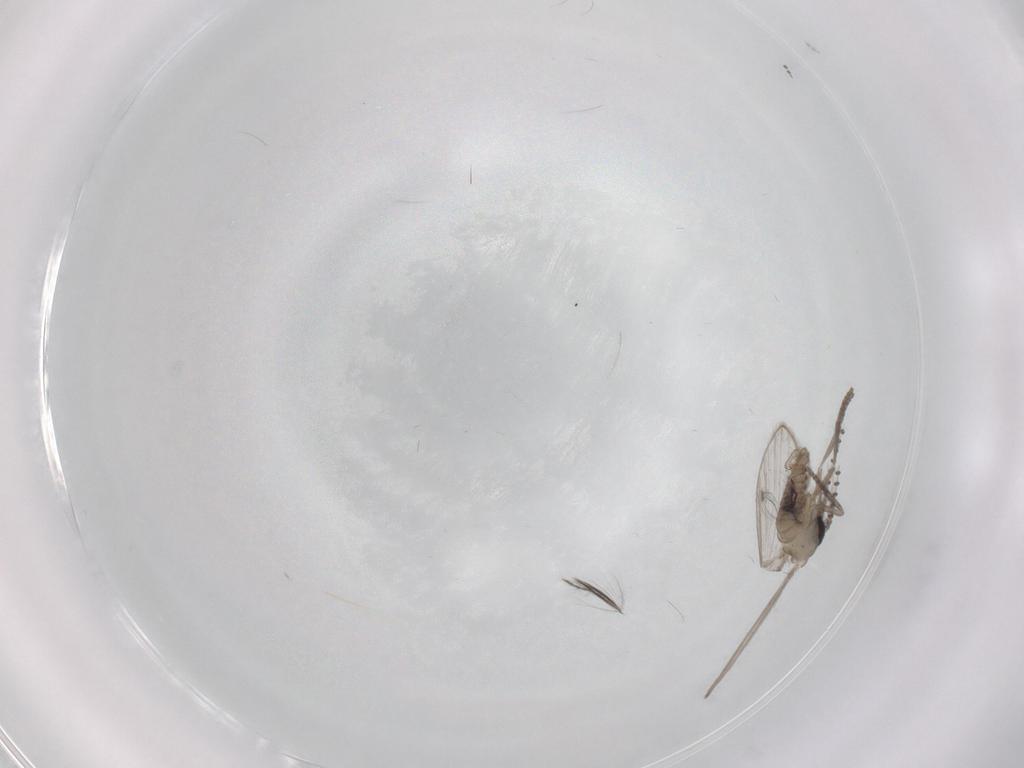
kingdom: Animalia
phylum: Arthropoda
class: Insecta
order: Diptera
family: Psychodidae
